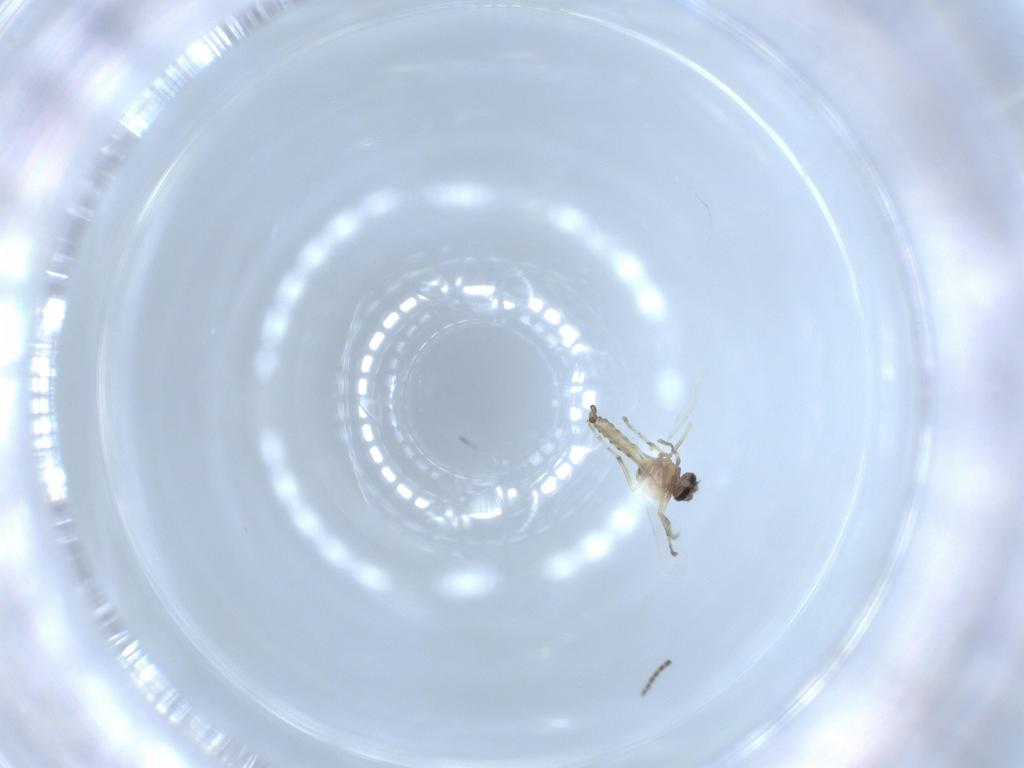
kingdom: Animalia
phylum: Arthropoda
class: Insecta
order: Diptera
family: Sciaridae
